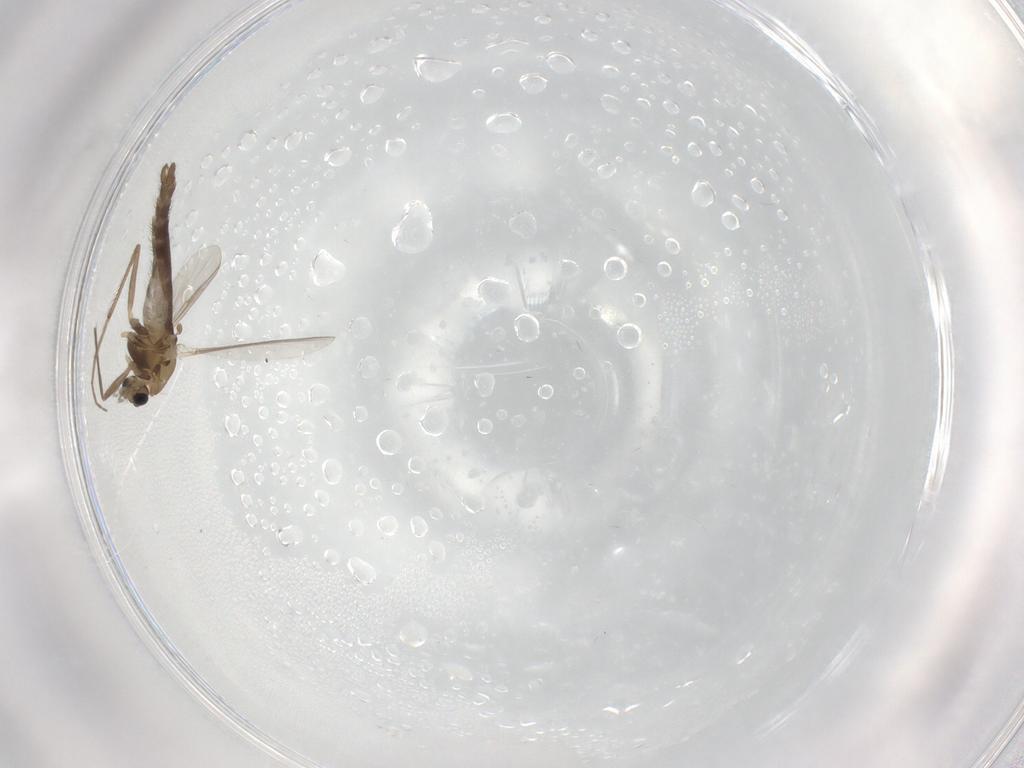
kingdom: Animalia
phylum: Arthropoda
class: Insecta
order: Diptera
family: Chironomidae
